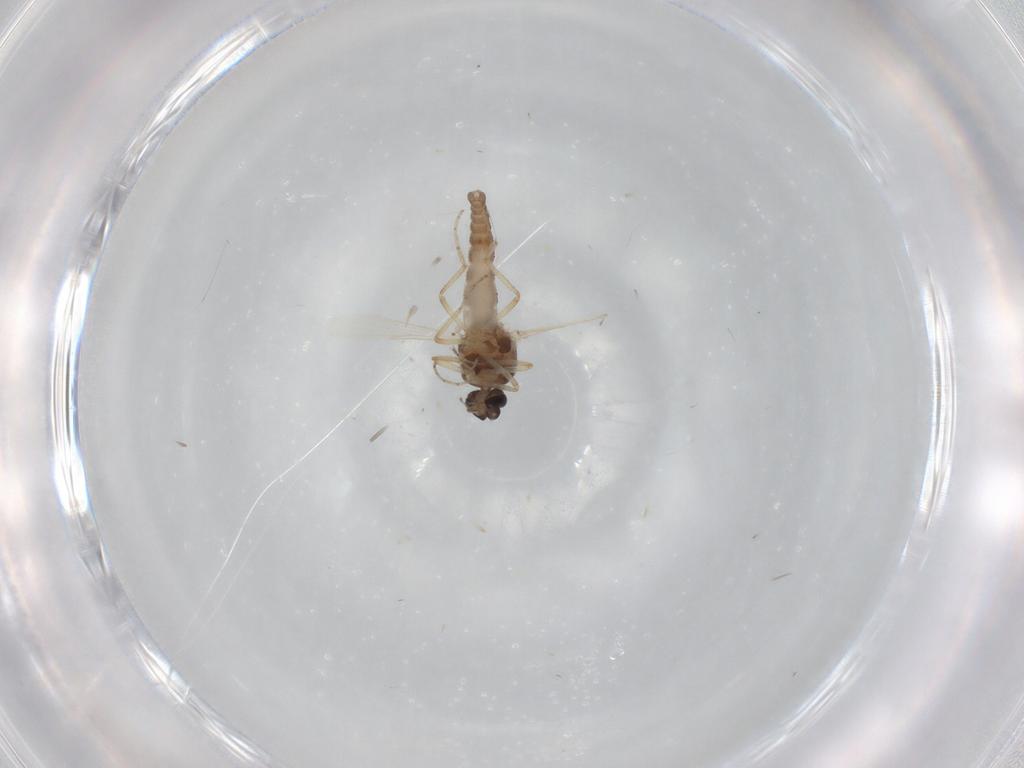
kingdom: Animalia
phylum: Arthropoda
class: Insecta
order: Diptera
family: Ceratopogonidae
